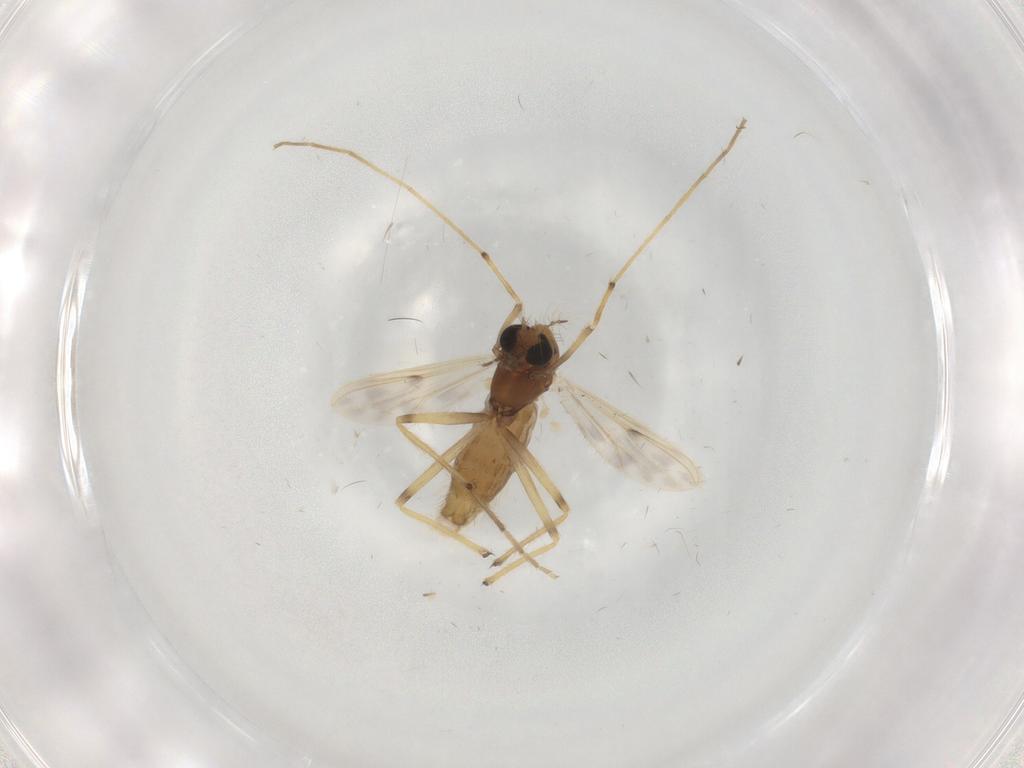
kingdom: Animalia
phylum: Arthropoda
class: Insecta
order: Diptera
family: Chironomidae
